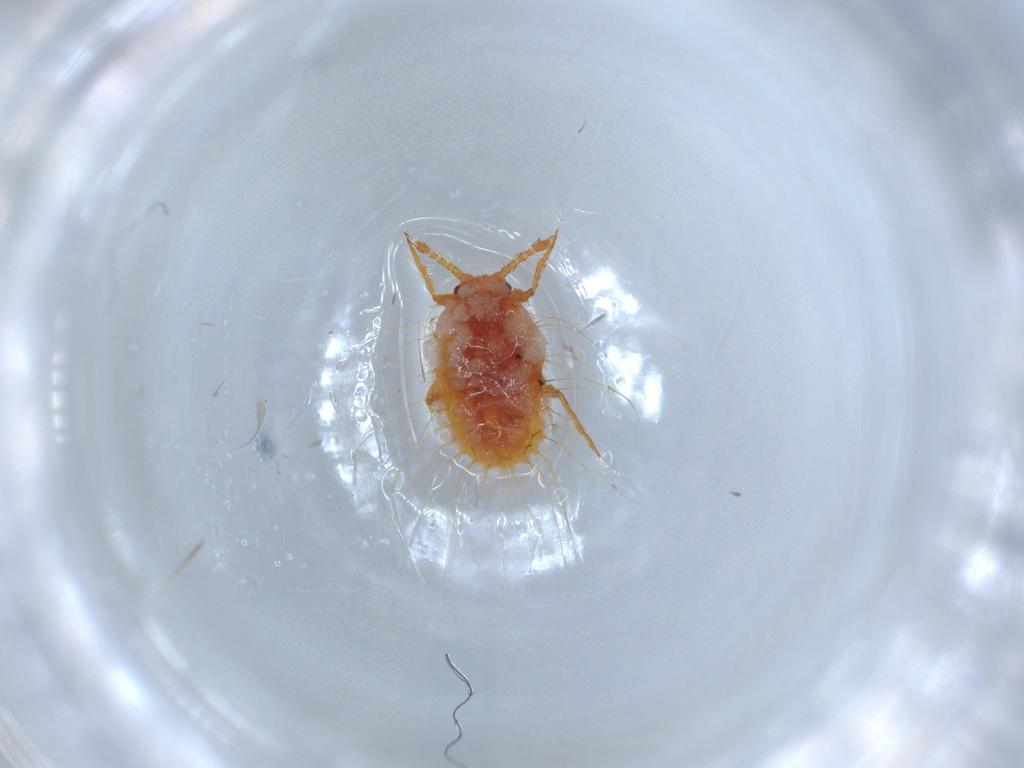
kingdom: Animalia
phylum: Arthropoda
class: Insecta
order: Hemiptera
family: Coccoidea_incertae_sedis
